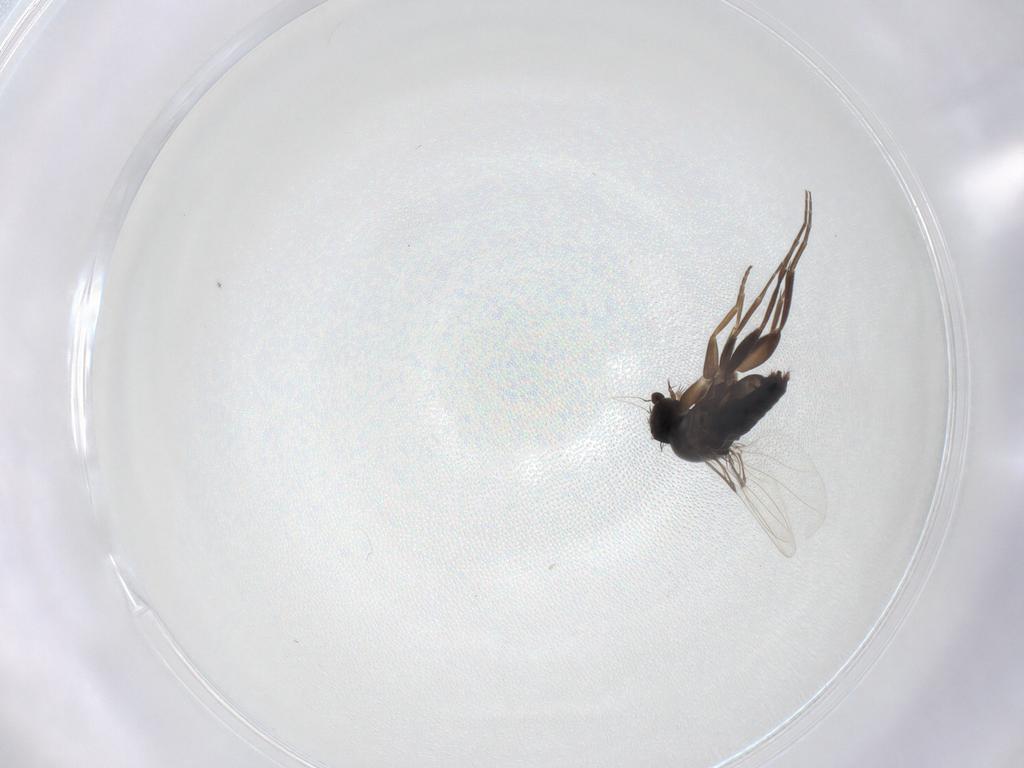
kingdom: Animalia
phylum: Arthropoda
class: Insecta
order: Diptera
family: Phoridae
